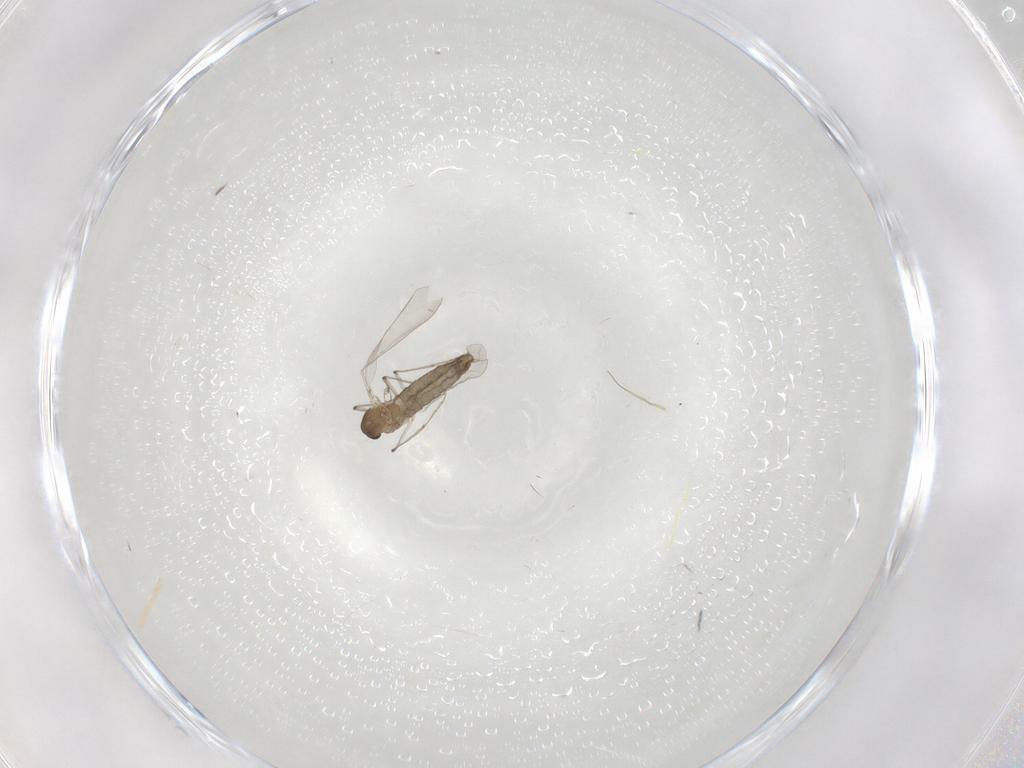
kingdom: Animalia
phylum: Arthropoda
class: Insecta
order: Diptera
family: Chironomidae
